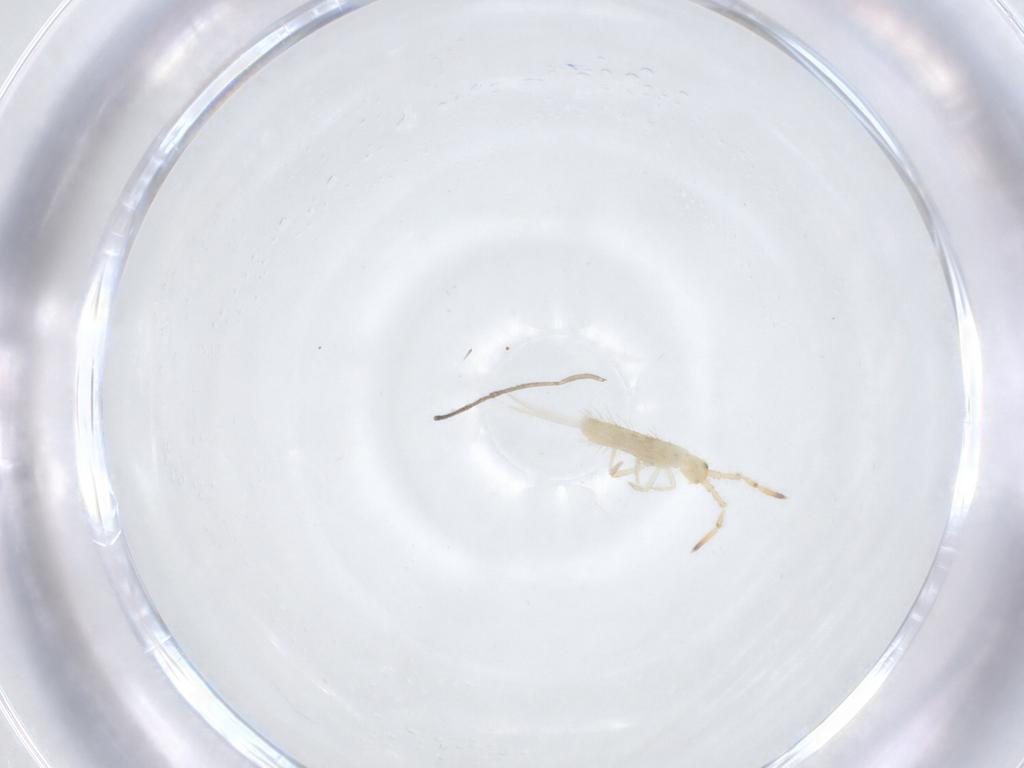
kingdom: Animalia
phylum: Arthropoda
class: Collembola
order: Entomobryomorpha
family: Entomobryidae
